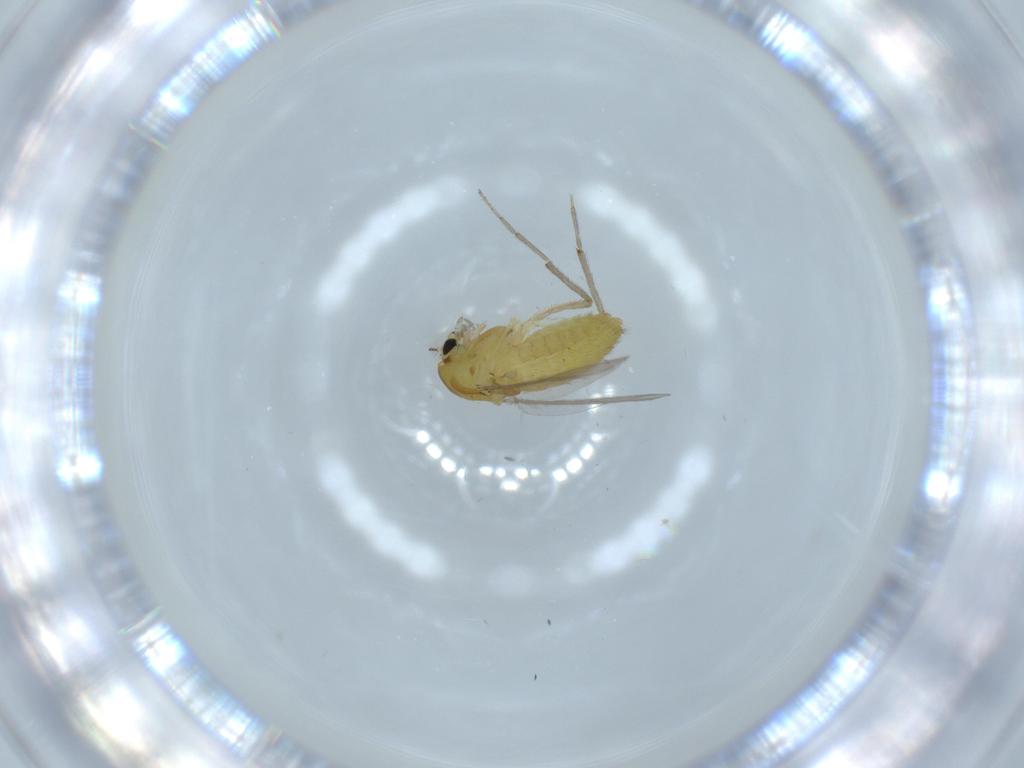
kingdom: Animalia
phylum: Arthropoda
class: Insecta
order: Diptera
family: Chironomidae
